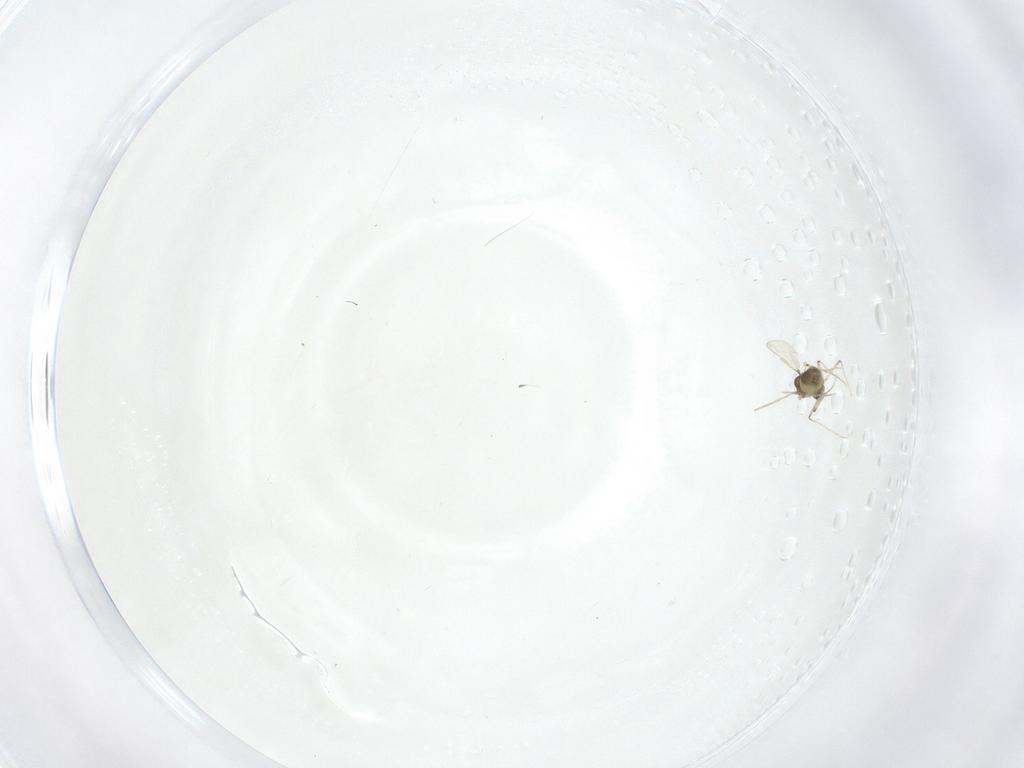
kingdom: Animalia
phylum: Arthropoda
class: Insecta
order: Diptera
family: Chironomidae
